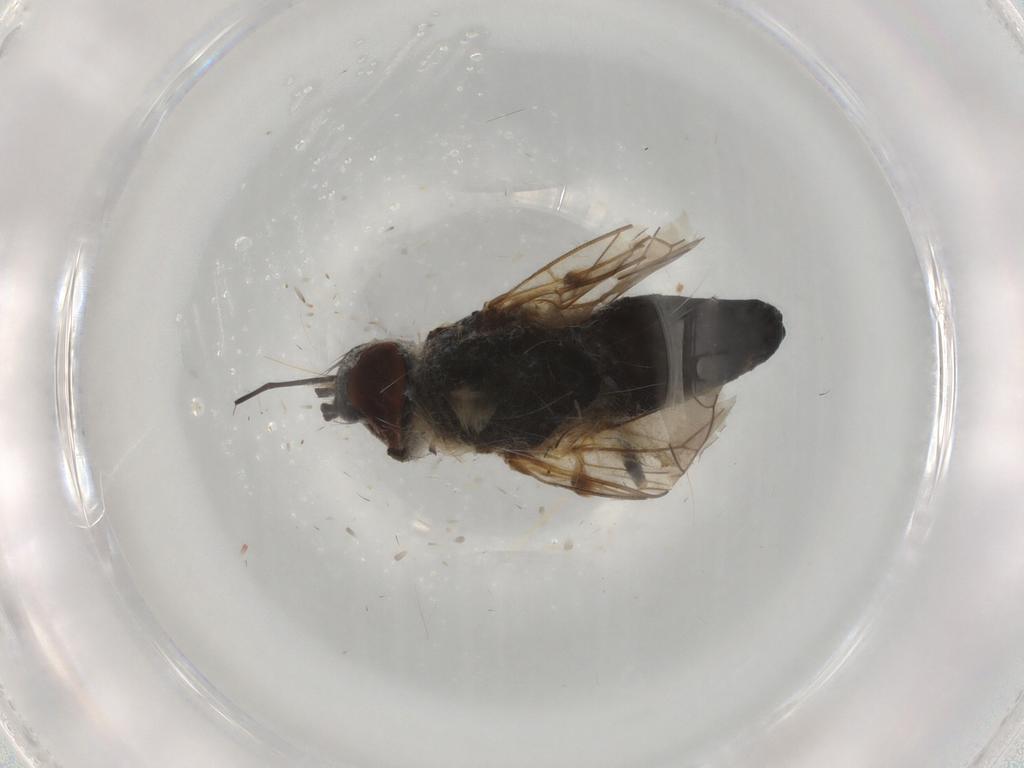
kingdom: Animalia
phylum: Arthropoda
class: Insecta
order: Diptera
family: Bombyliidae
